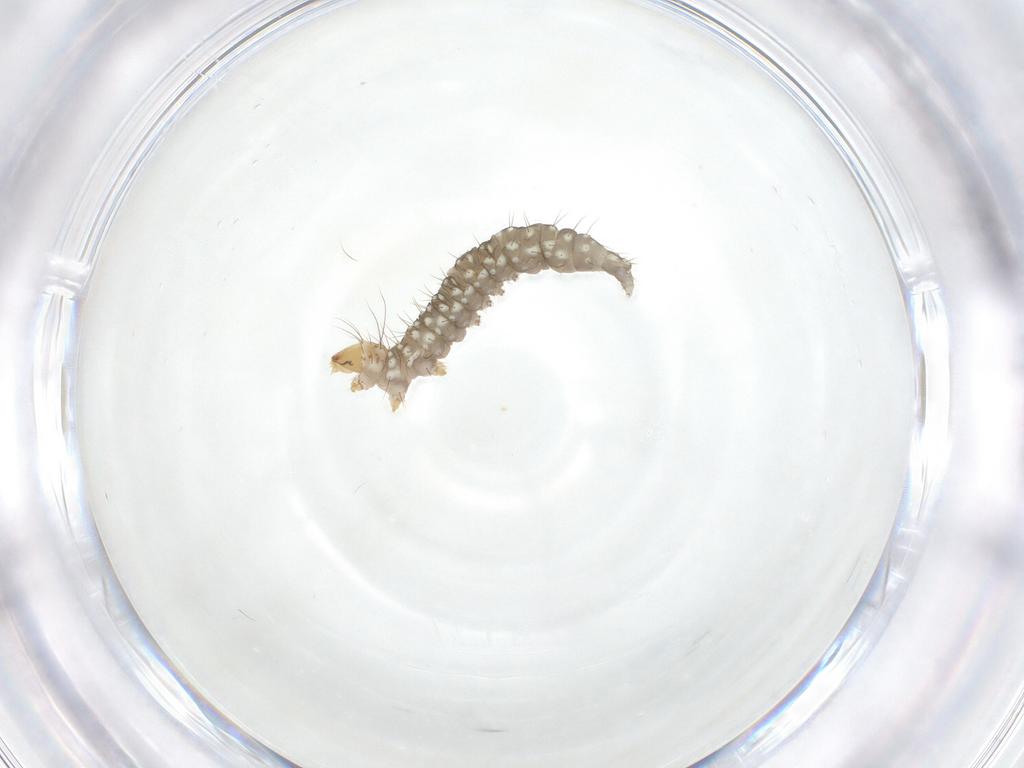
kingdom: Animalia
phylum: Arthropoda
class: Insecta
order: Lepidoptera
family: Bucculatricidae
